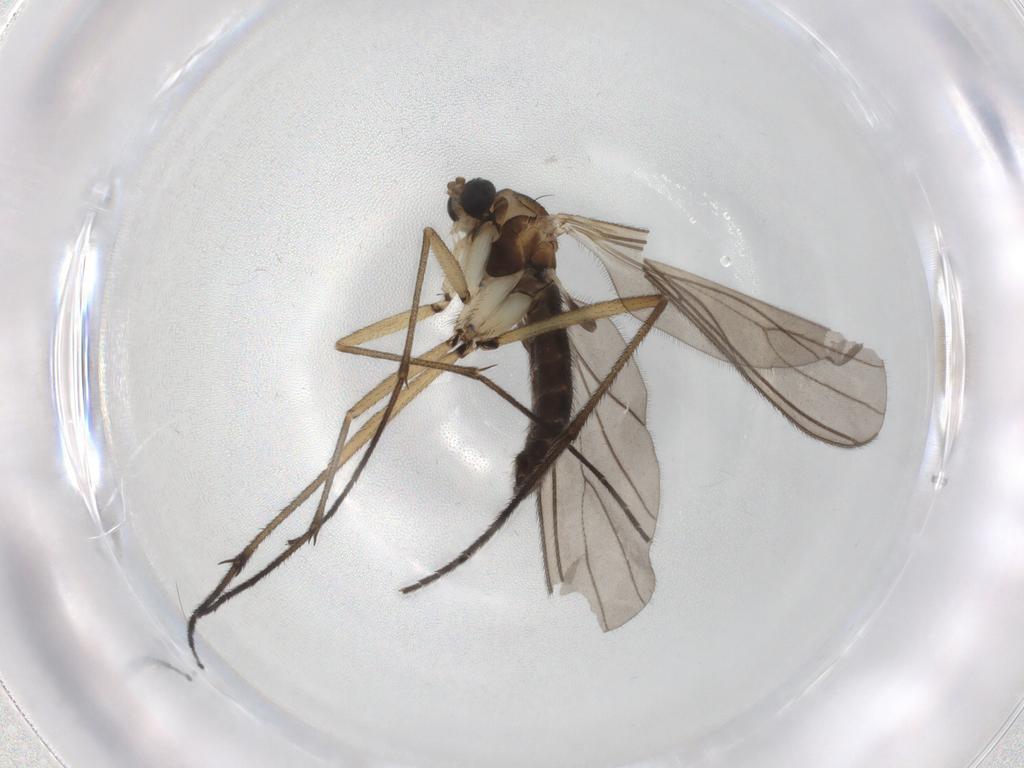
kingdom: Animalia
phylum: Arthropoda
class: Insecta
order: Diptera
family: Sciaridae
